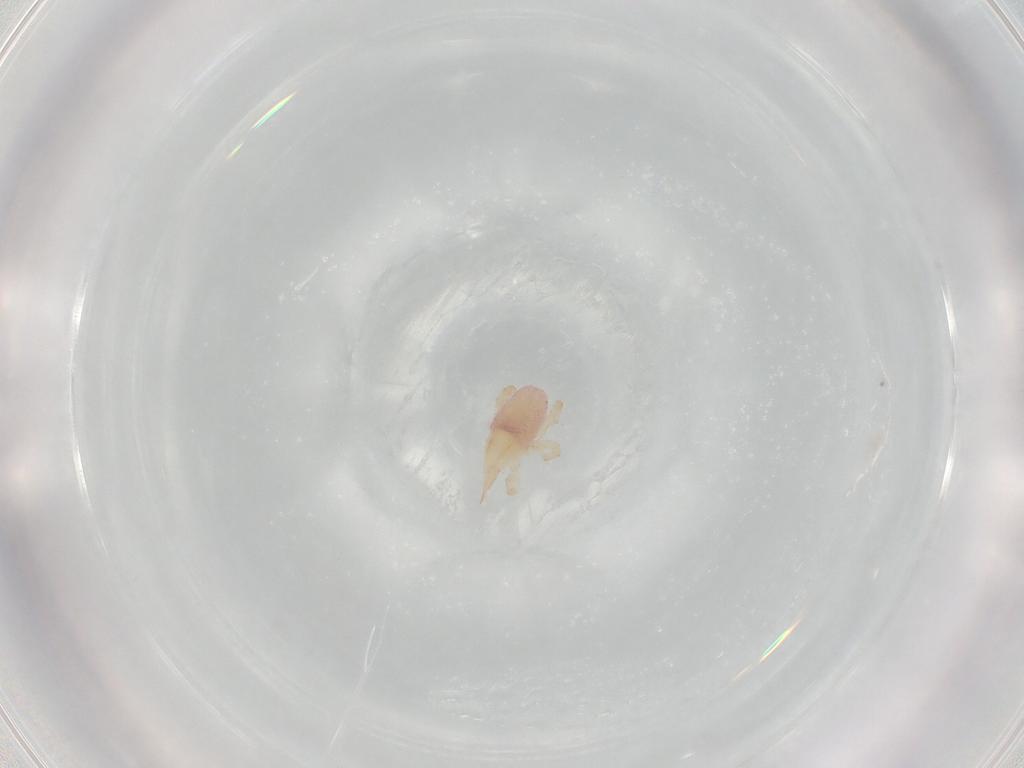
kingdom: Animalia
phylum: Arthropoda
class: Arachnida
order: Trombidiformes
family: Bdellidae
